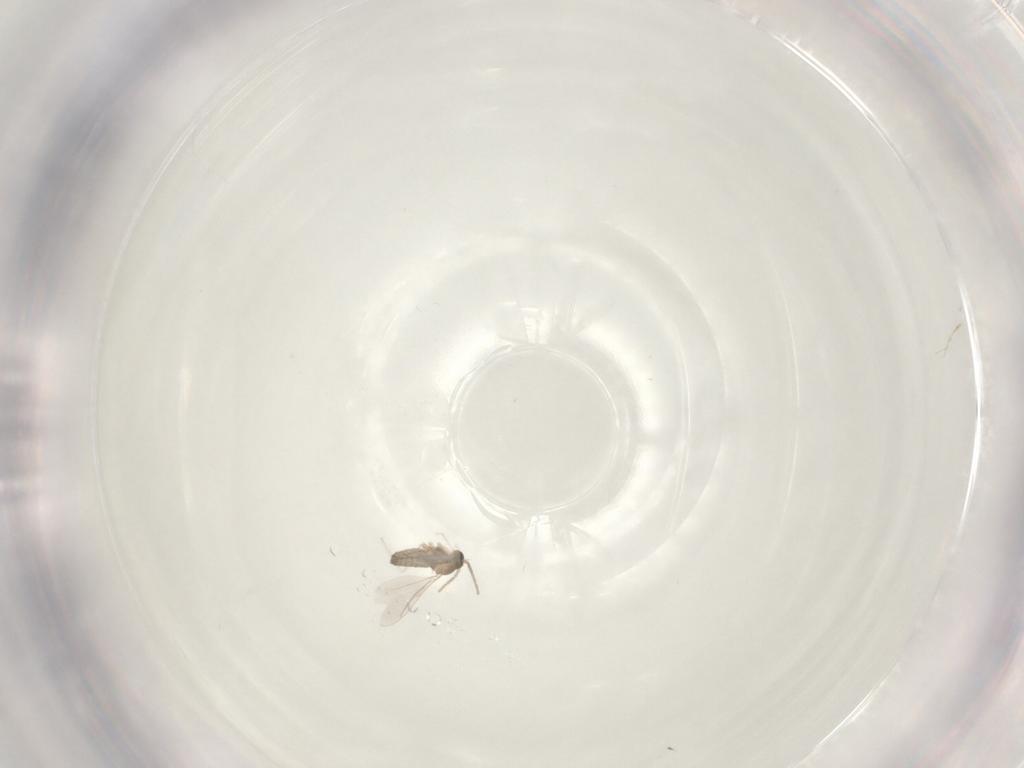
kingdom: Animalia
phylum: Arthropoda
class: Insecta
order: Diptera
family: Cecidomyiidae
